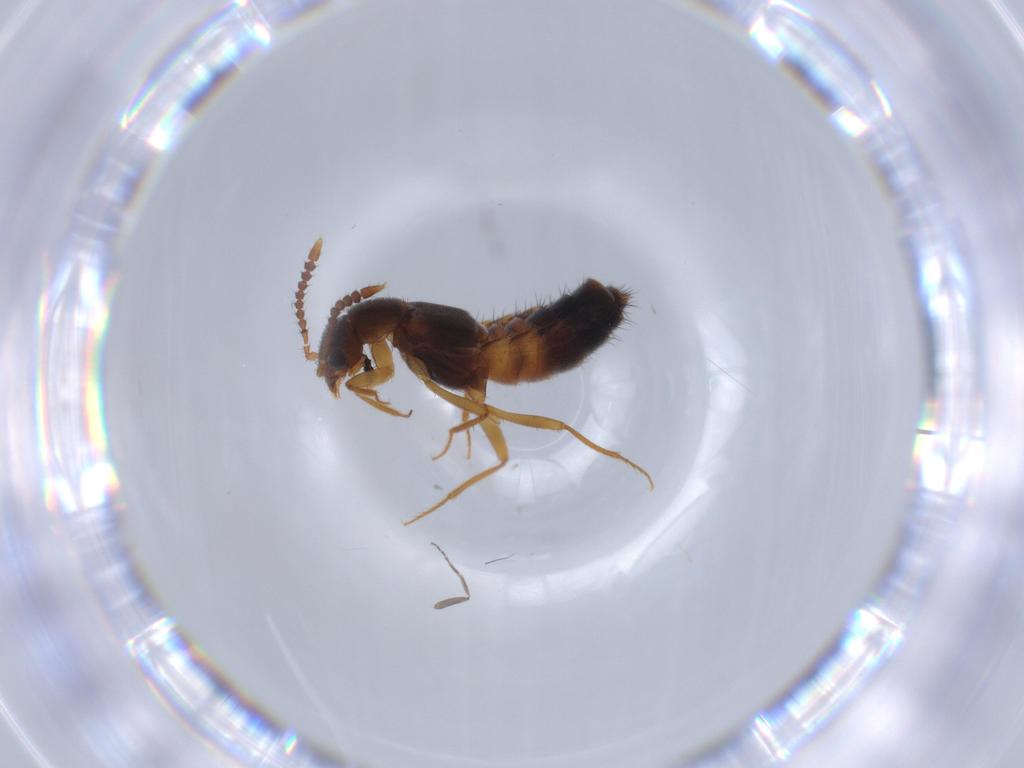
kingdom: Animalia
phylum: Arthropoda
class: Insecta
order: Coleoptera
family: Staphylinidae
